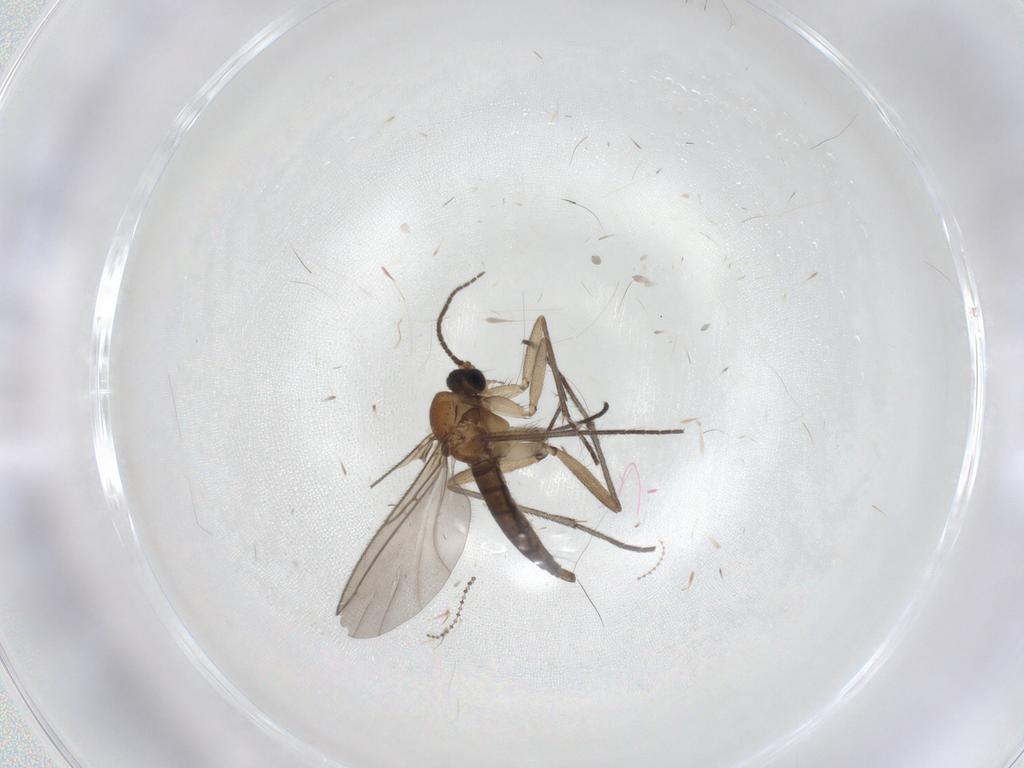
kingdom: Animalia
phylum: Arthropoda
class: Insecta
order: Diptera
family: Sciaridae
